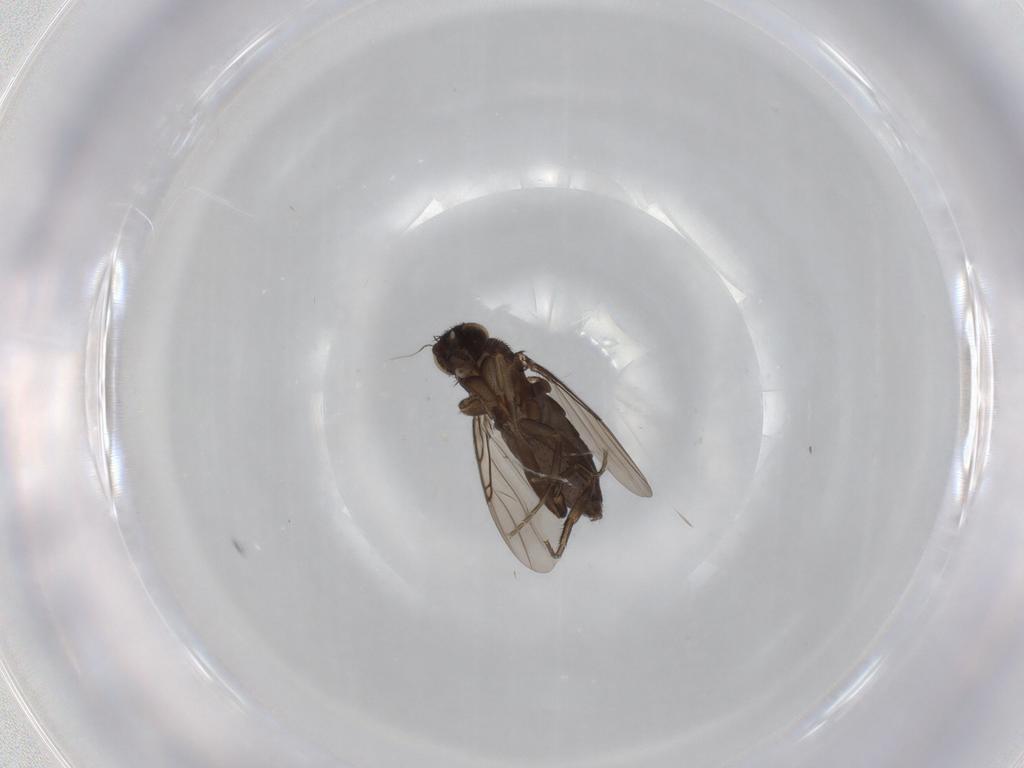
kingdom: Animalia
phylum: Arthropoda
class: Insecta
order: Diptera
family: Phoridae
